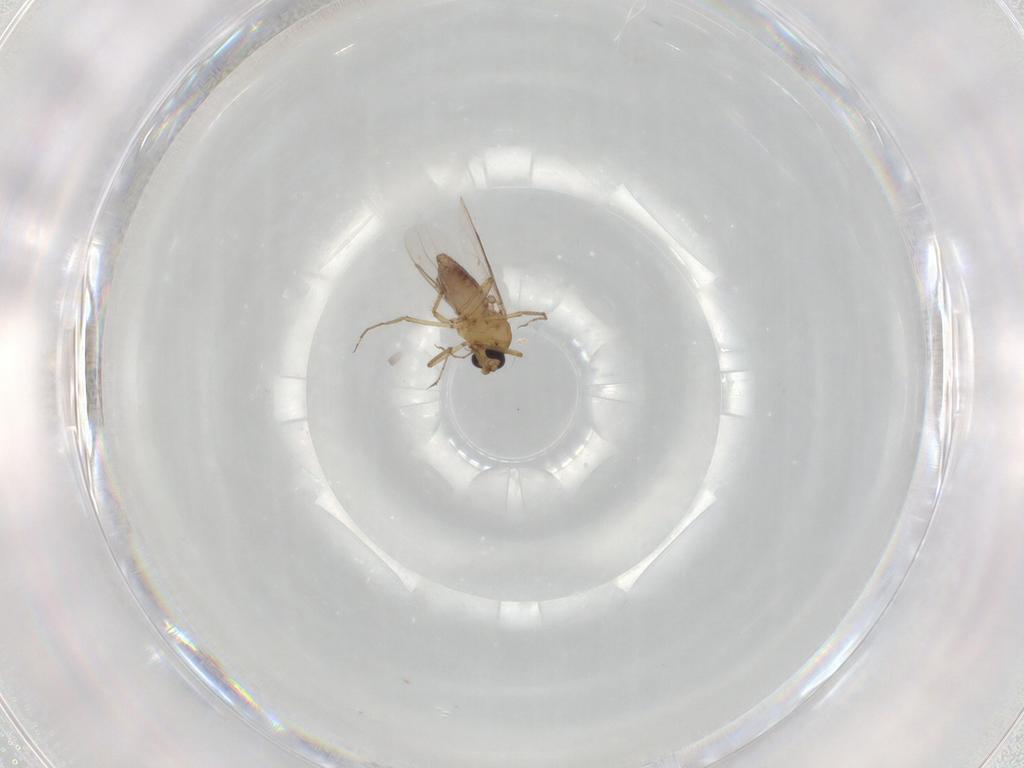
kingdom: Animalia
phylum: Arthropoda
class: Insecta
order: Diptera
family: Ceratopogonidae
